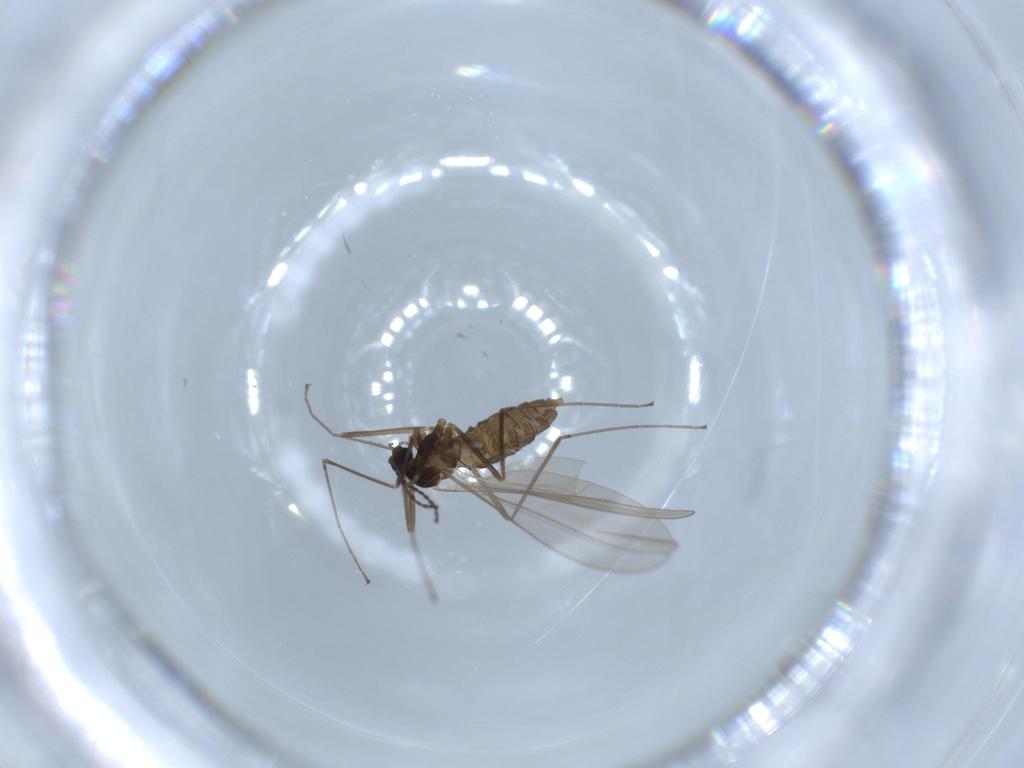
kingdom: Animalia
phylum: Arthropoda
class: Insecta
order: Diptera
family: Cecidomyiidae
